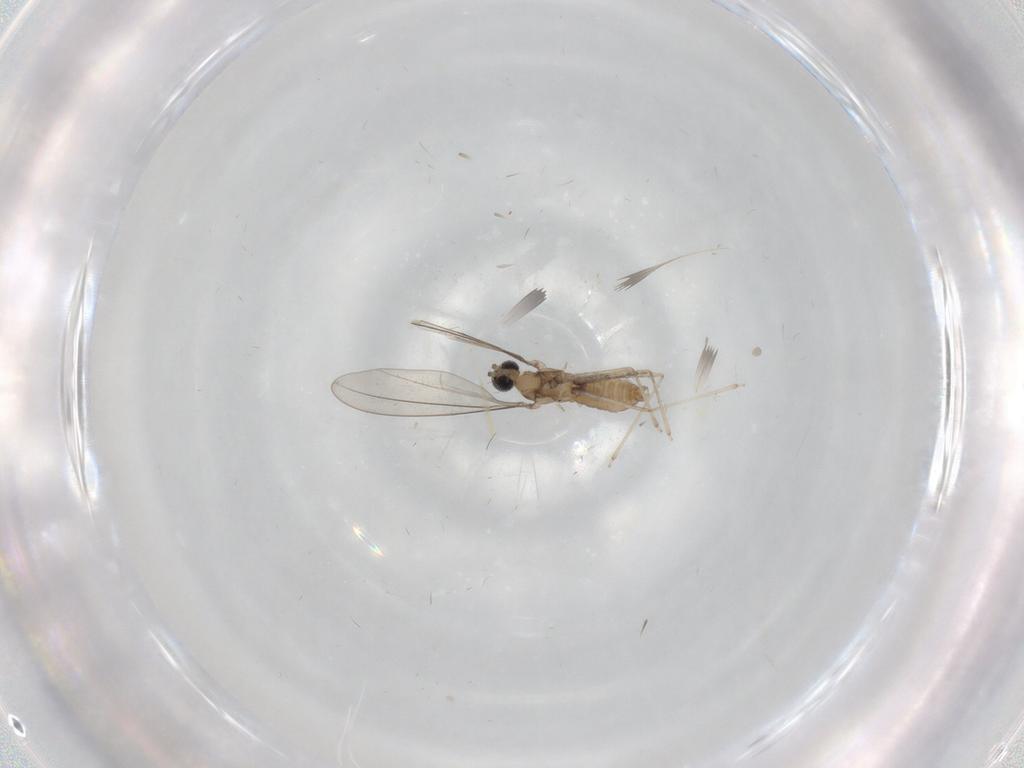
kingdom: Animalia
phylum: Arthropoda
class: Insecta
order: Diptera
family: Cecidomyiidae
